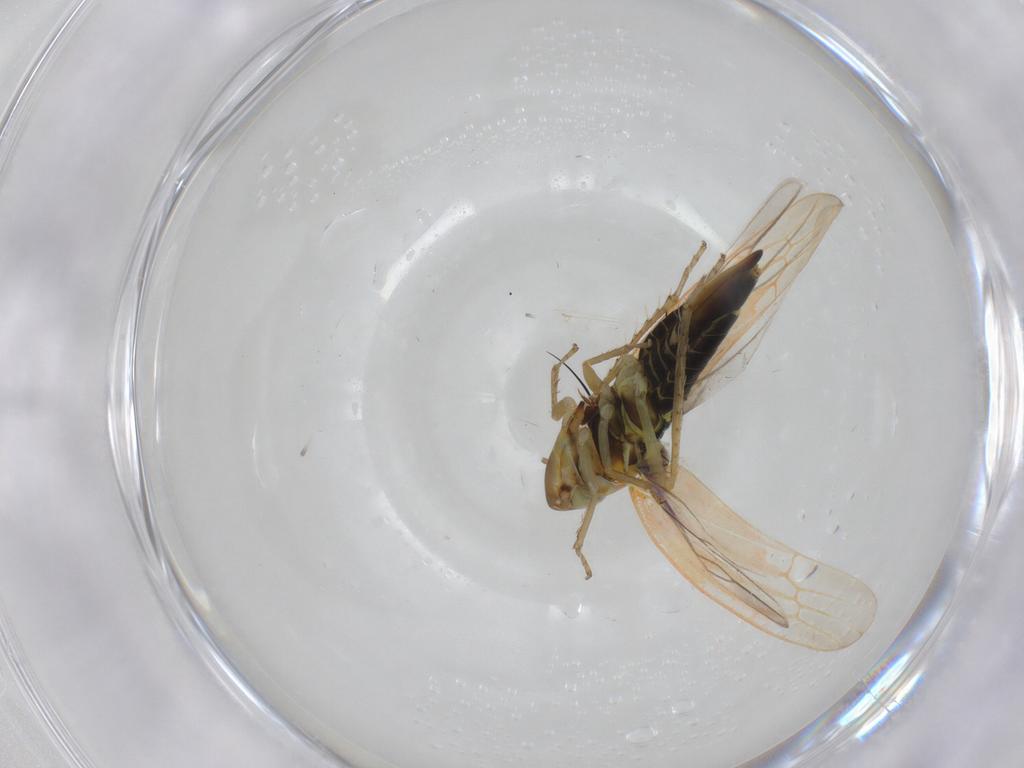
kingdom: Animalia
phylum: Arthropoda
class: Insecta
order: Hemiptera
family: Cicadellidae
